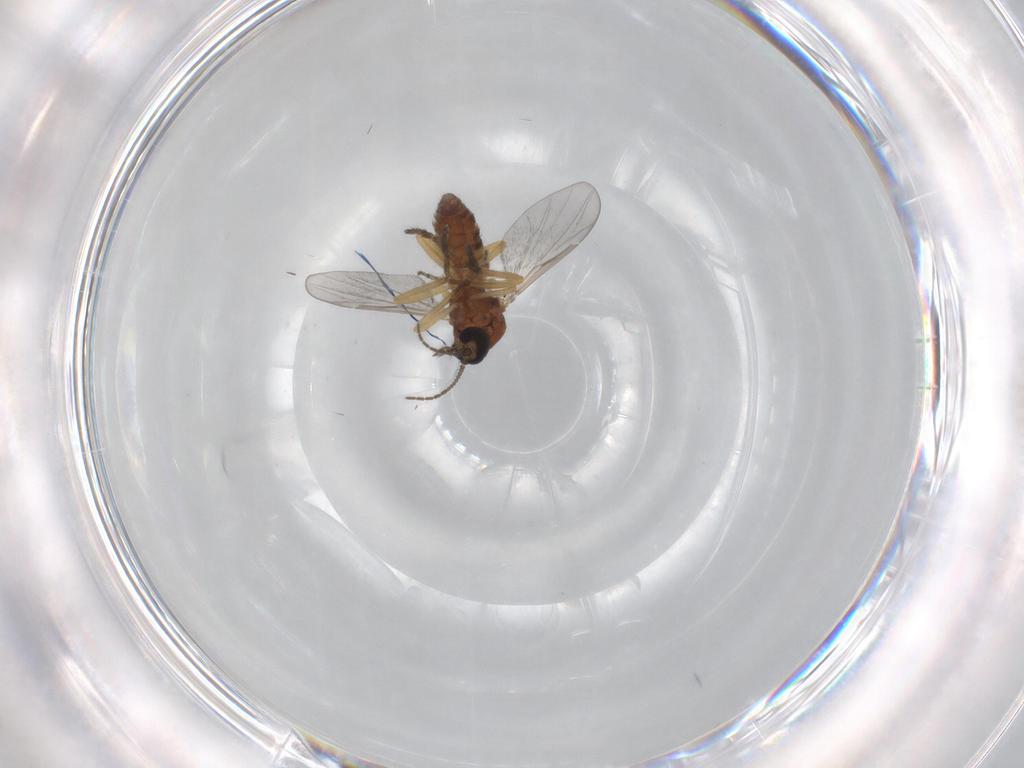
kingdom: Animalia
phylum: Arthropoda
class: Insecta
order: Diptera
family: Ceratopogonidae
